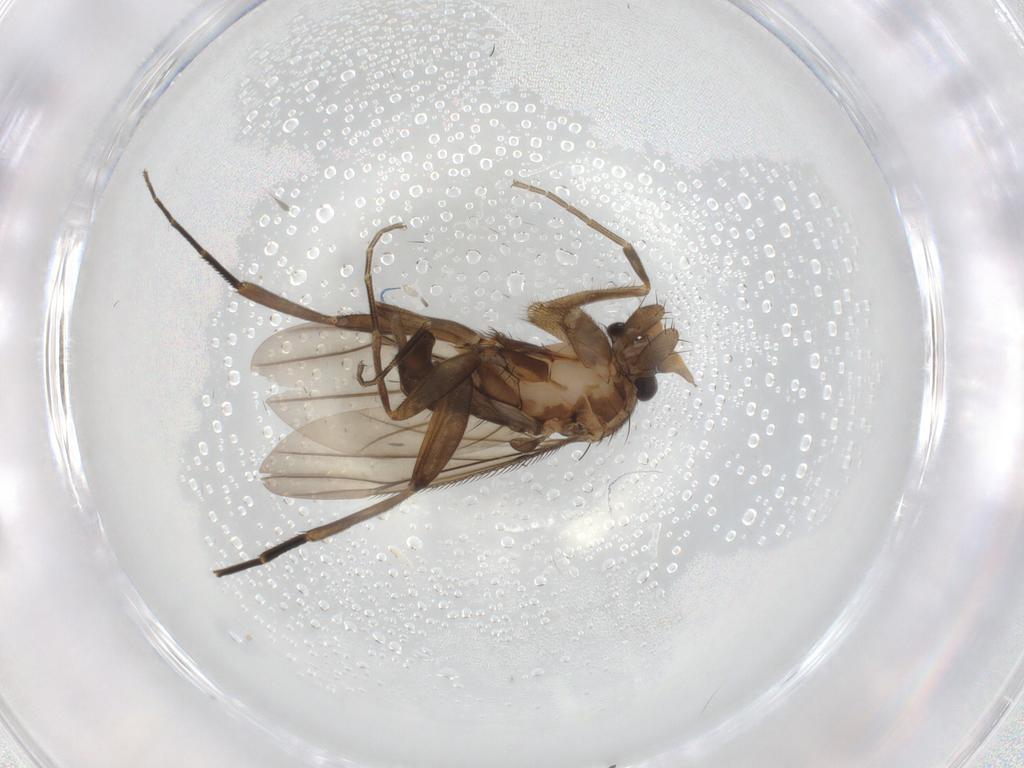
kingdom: Animalia
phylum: Arthropoda
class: Insecta
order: Diptera
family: Phoridae
